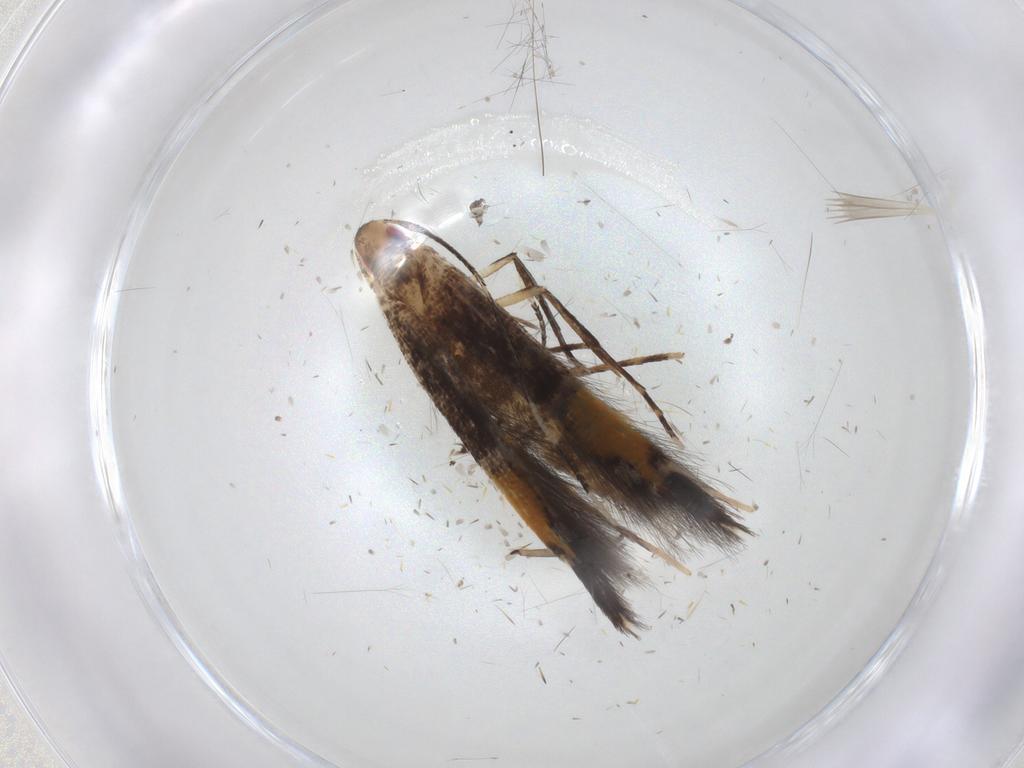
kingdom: Animalia
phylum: Arthropoda
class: Insecta
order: Lepidoptera
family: Cosmopterigidae
